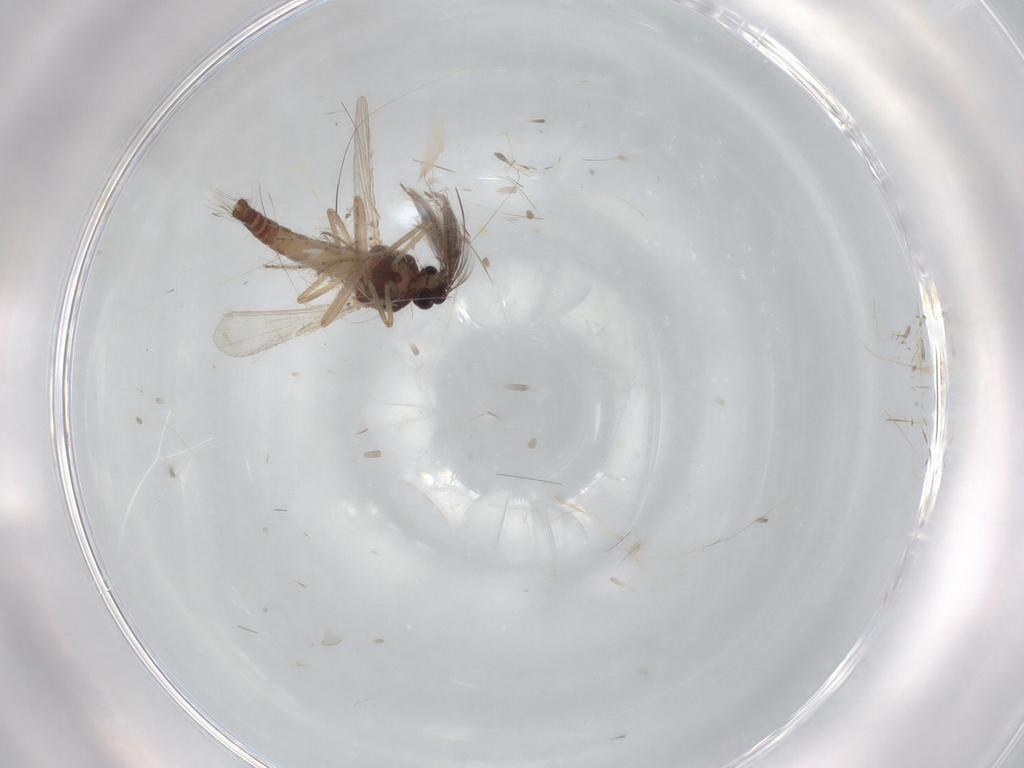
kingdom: Animalia
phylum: Arthropoda
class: Insecta
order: Diptera
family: Ceratopogonidae
